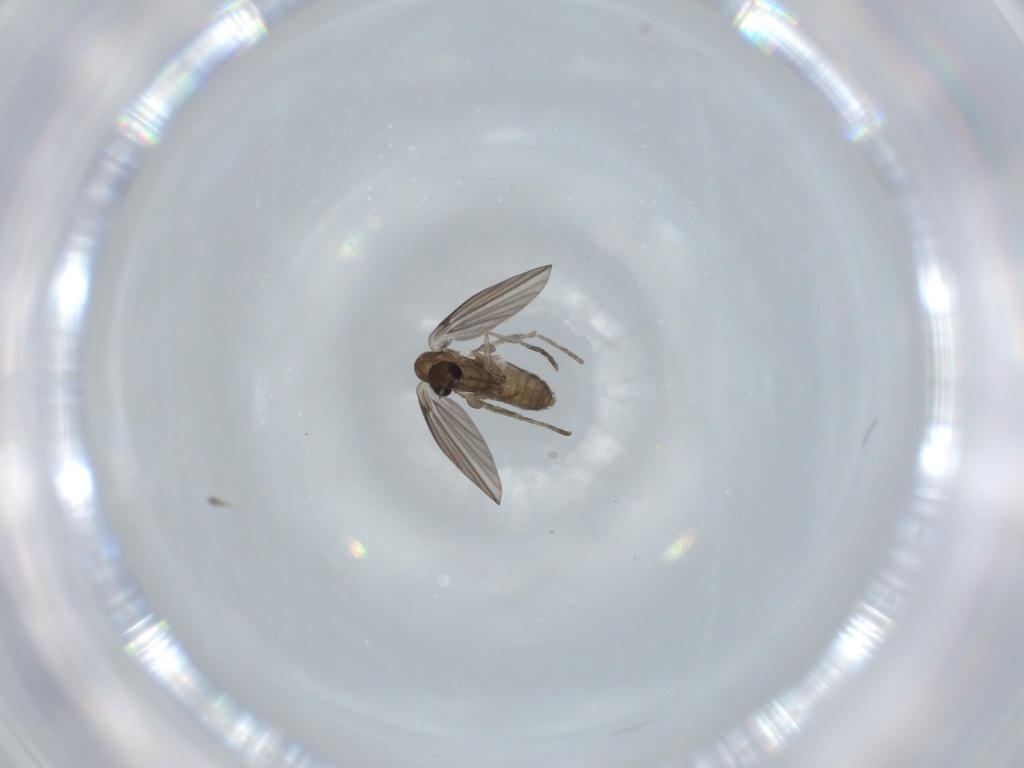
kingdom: Animalia
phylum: Arthropoda
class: Insecta
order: Diptera
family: Psychodidae
